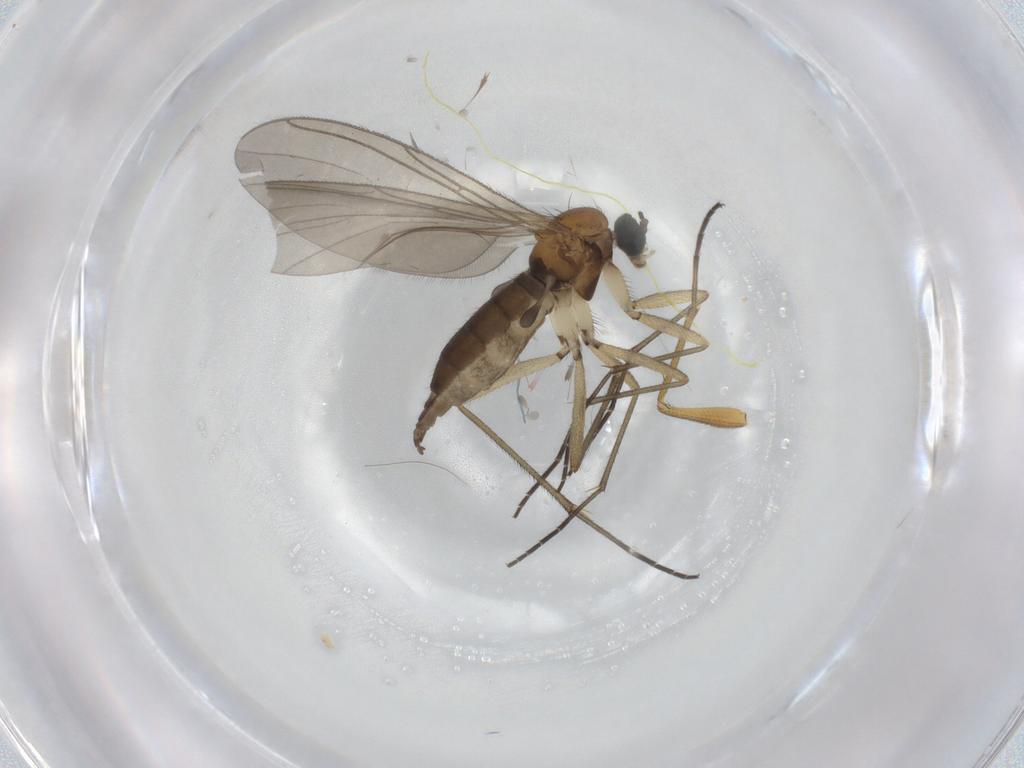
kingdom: Animalia
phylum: Arthropoda
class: Insecta
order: Diptera
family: Sciaridae
